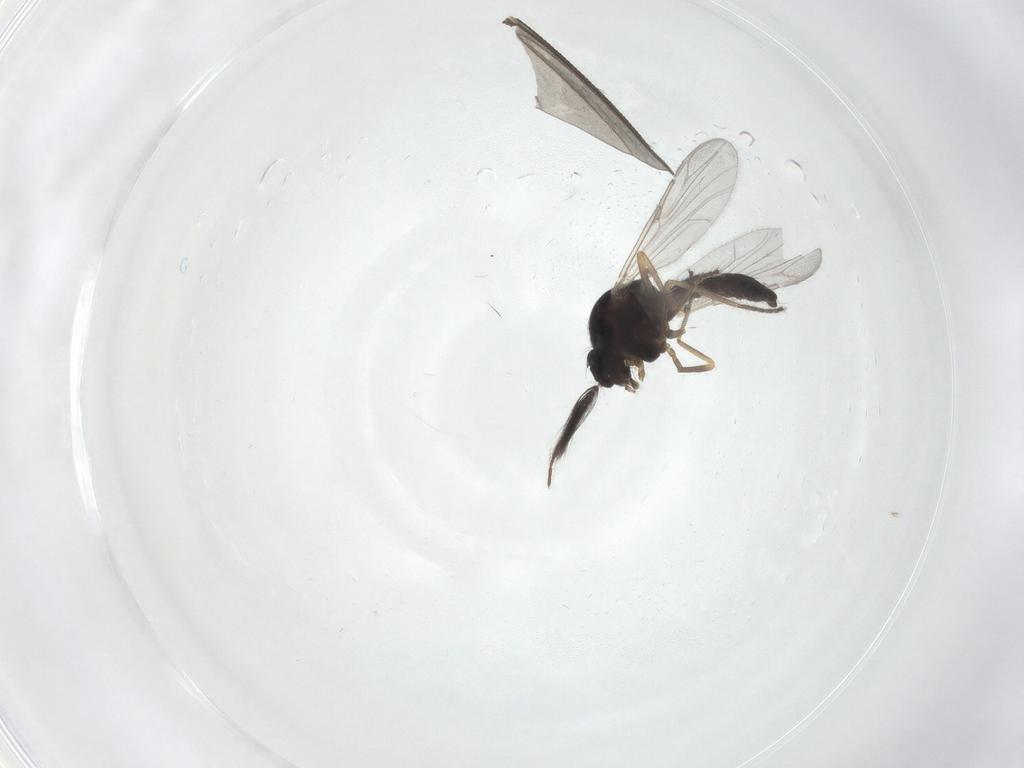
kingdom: Animalia
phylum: Arthropoda
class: Insecta
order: Diptera
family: Ceratopogonidae
